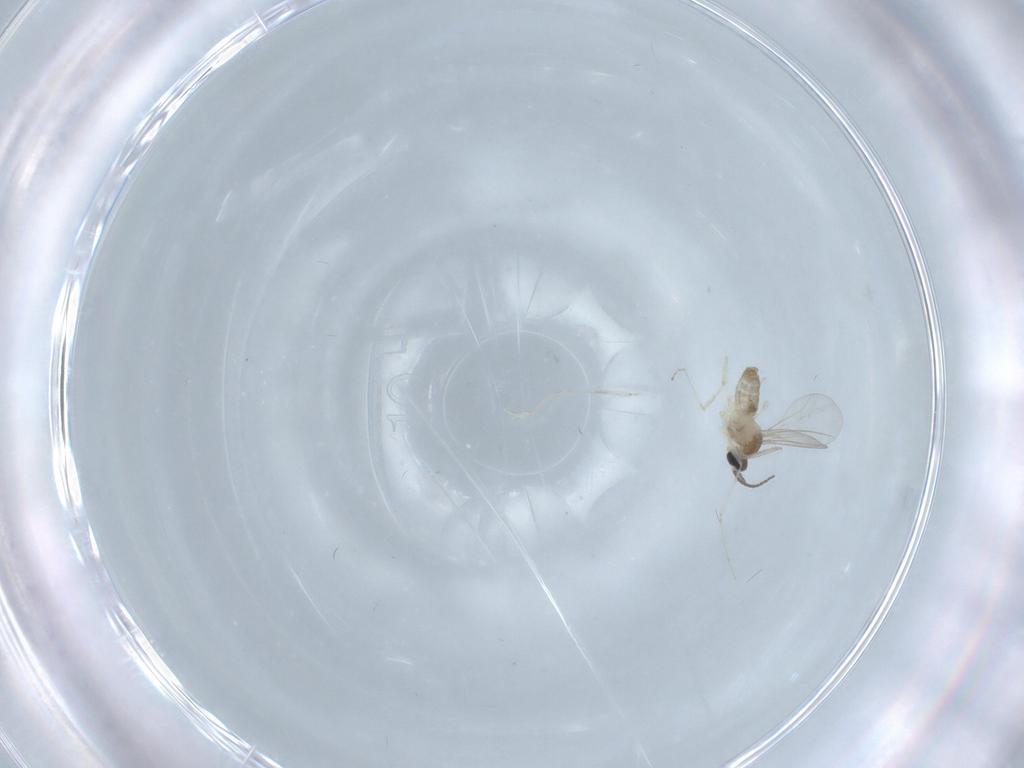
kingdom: Animalia
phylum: Arthropoda
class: Insecta
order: Diptera
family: Cecidomyiidae
